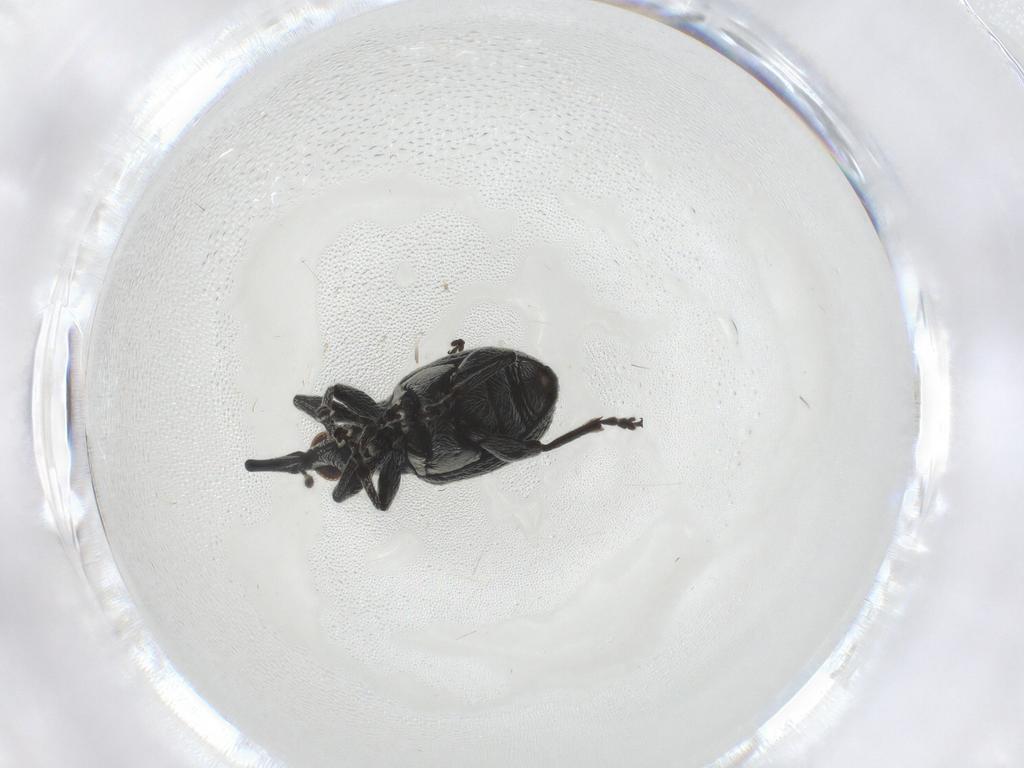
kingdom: Animalia
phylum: Arthropoda
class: Insecta
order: Coleoptera
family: Brentidae
